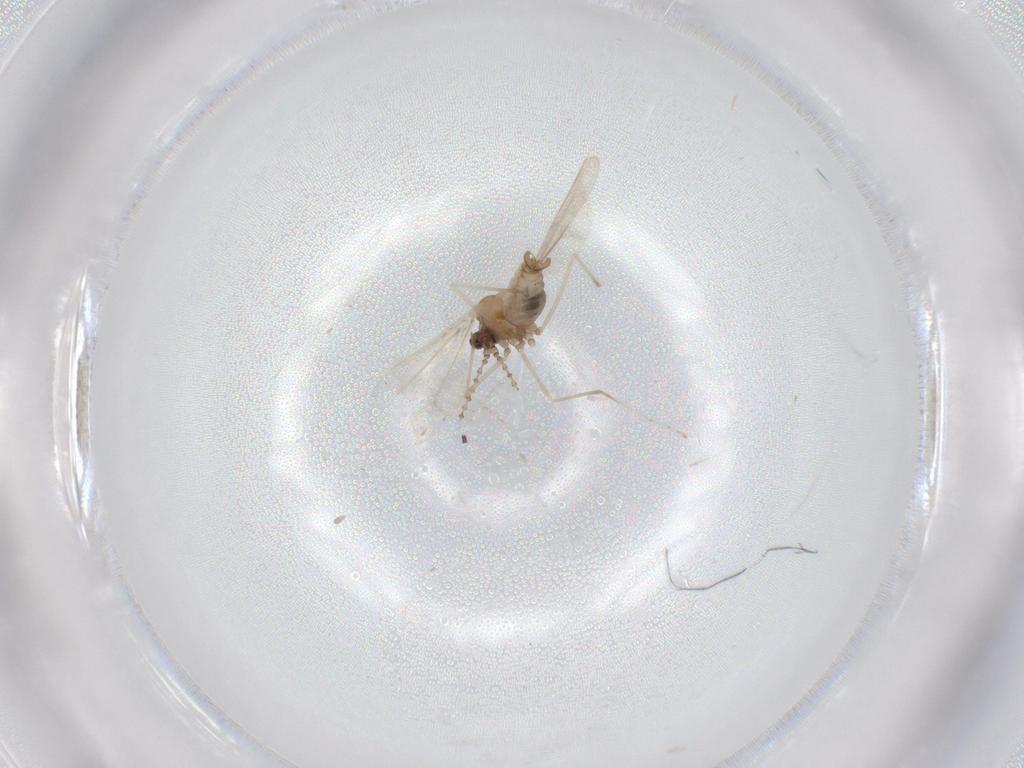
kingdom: Animalia
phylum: Arthropoda
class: Insecta
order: Diptera
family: Cecidomyiidae
